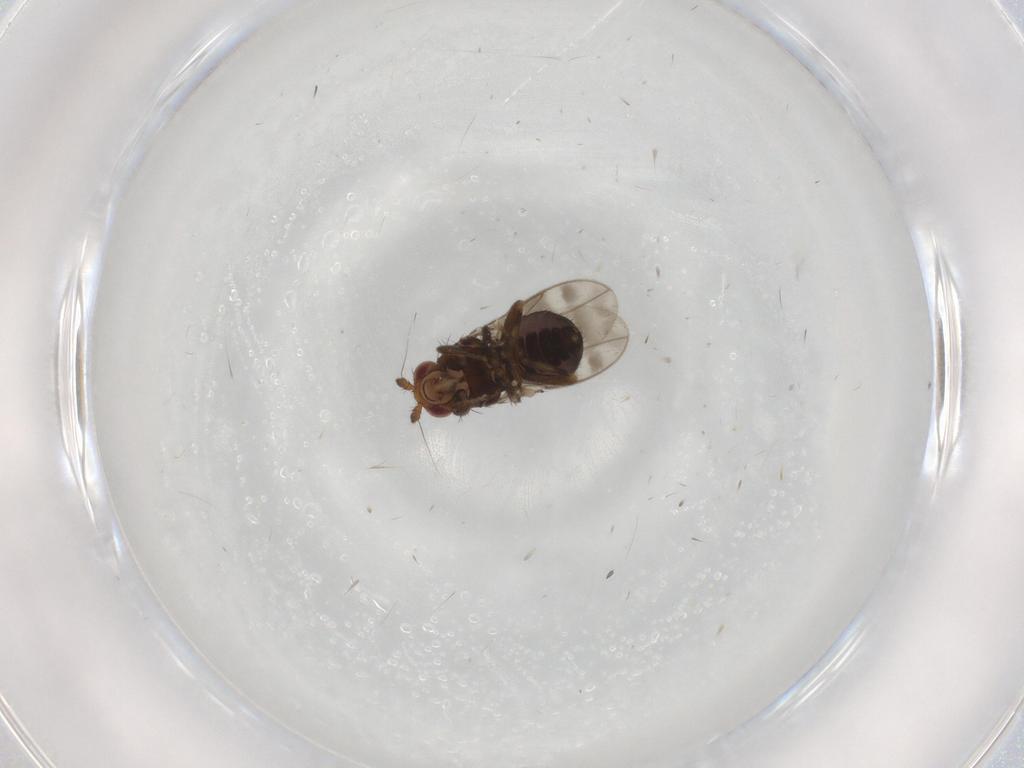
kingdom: Animalia
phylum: Arthropoda
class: Insecta
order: Diptera
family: Sphaeroceridae
